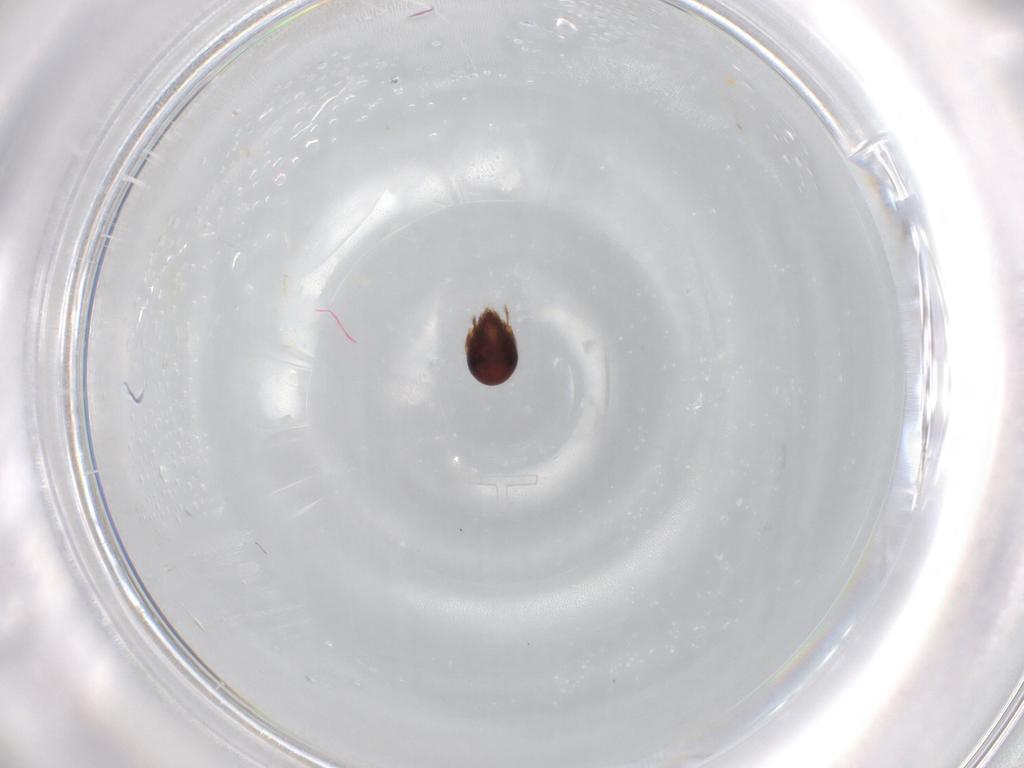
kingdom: Animalia
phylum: Arthropoda
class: Arachnida
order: Sarcoptiformes
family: Humerobatidae
